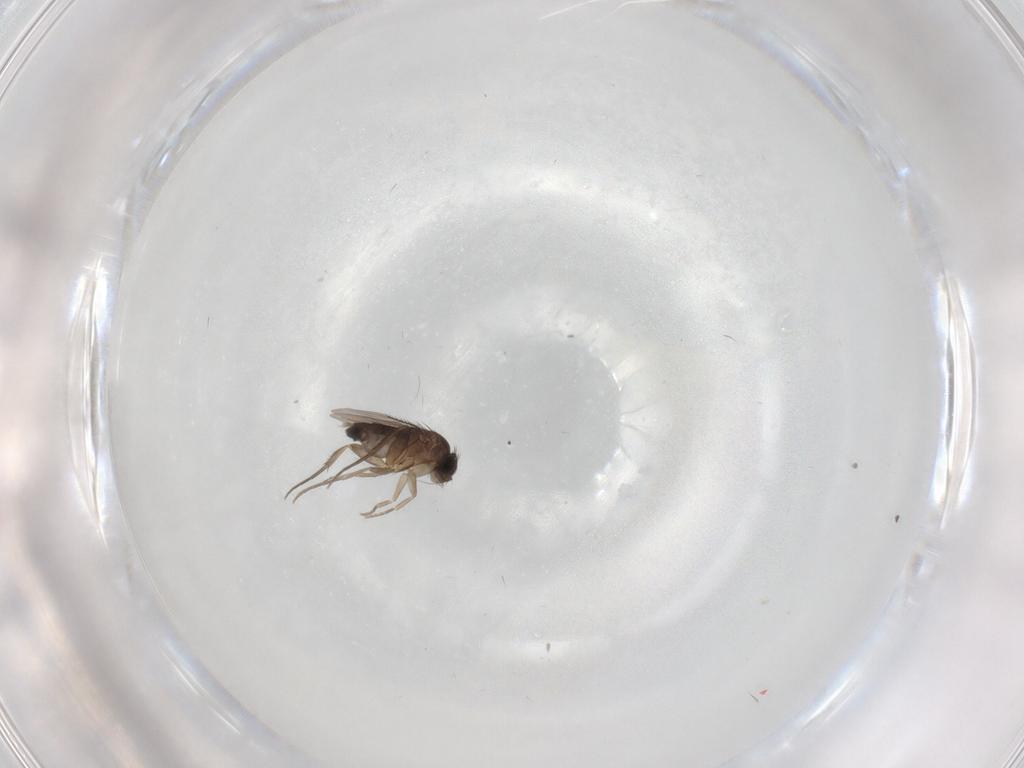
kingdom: Animalia
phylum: Arthropoda
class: Insecta
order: Diptera
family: Phoridae
